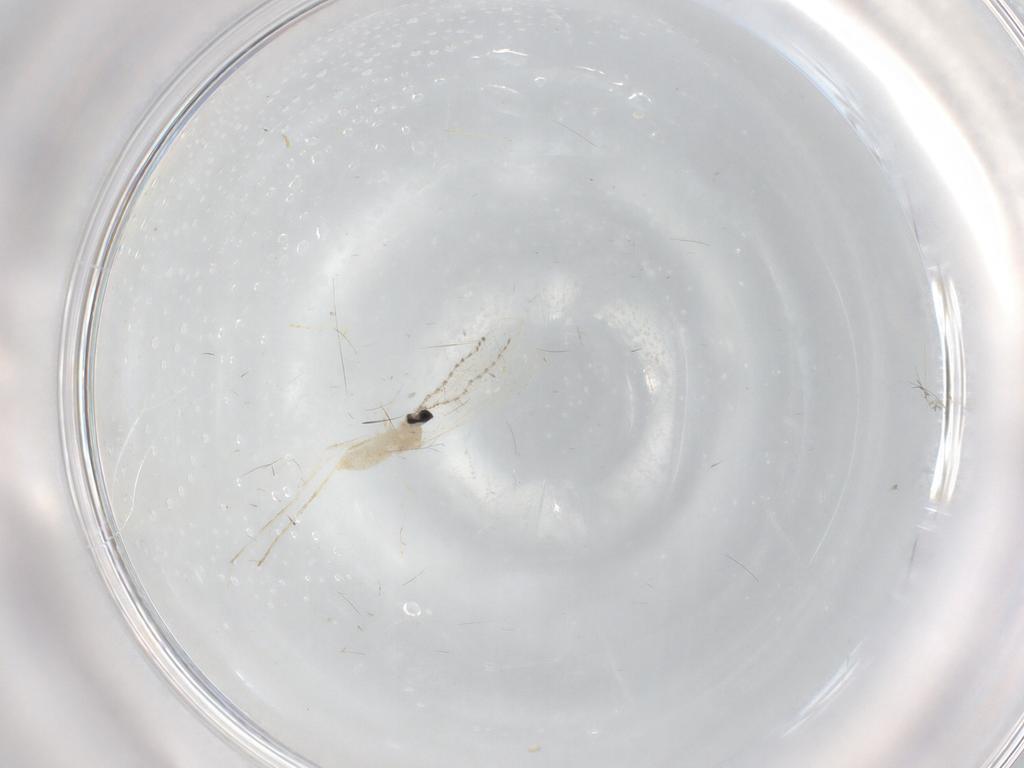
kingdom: Animalia
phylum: Arthropoda
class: Insecta
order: Diptera
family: Cecidomyiidae
